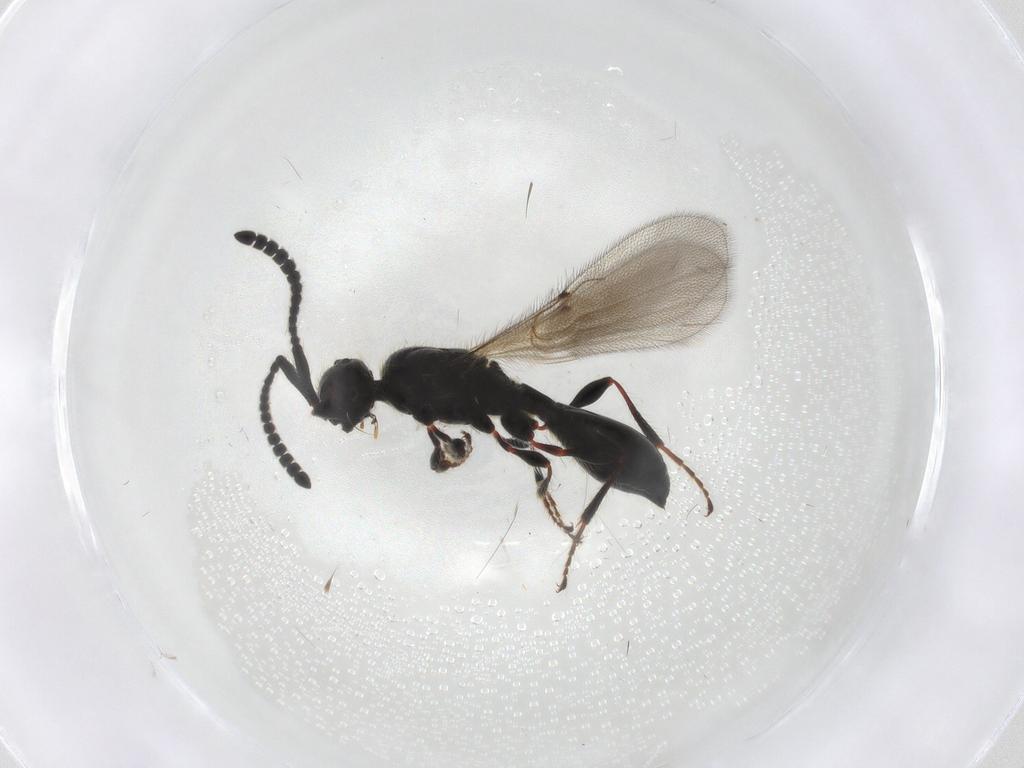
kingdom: Animalia
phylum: Arthropoda
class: Insecta
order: Hymenoptera
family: Diapriidae
